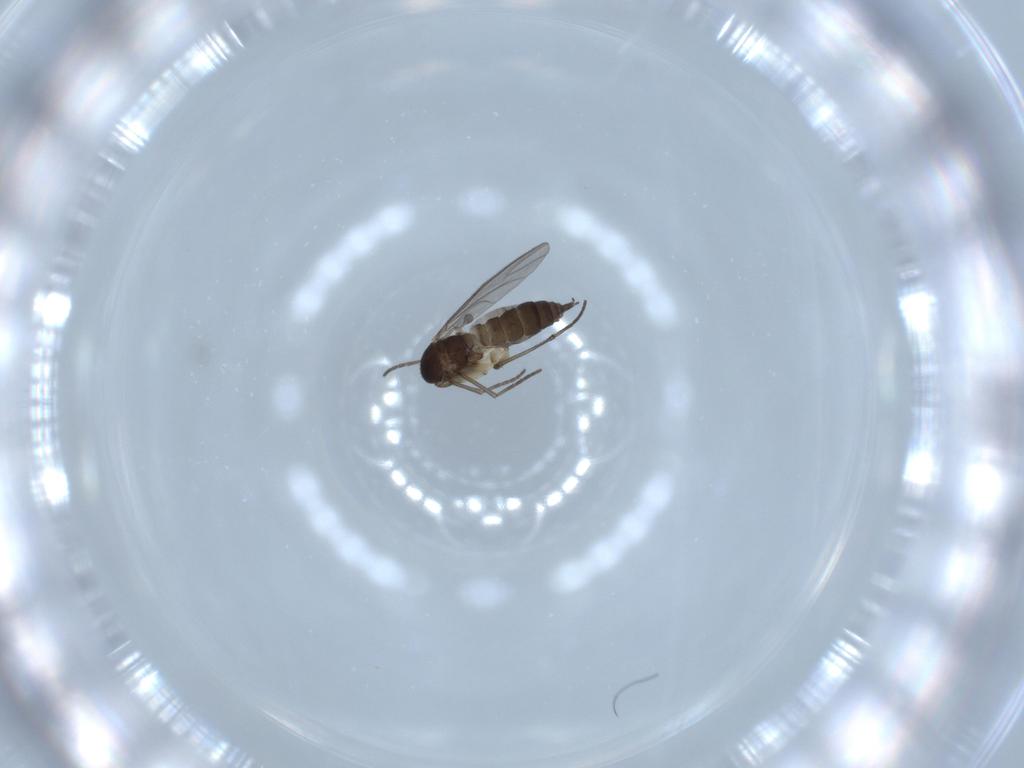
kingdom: Animalia
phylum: Arthropoda
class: Insecta
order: Diptera
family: Sciaridae
